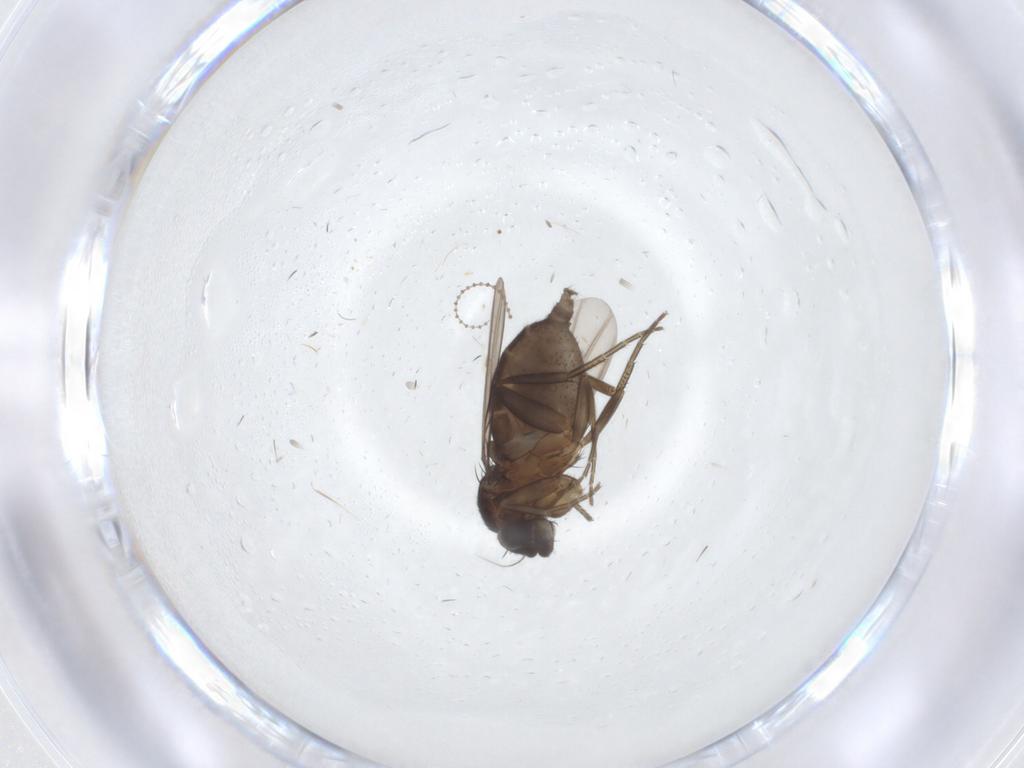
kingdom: Animalia
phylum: Arthropoda
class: Insecta
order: Diptera
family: Phoridae
